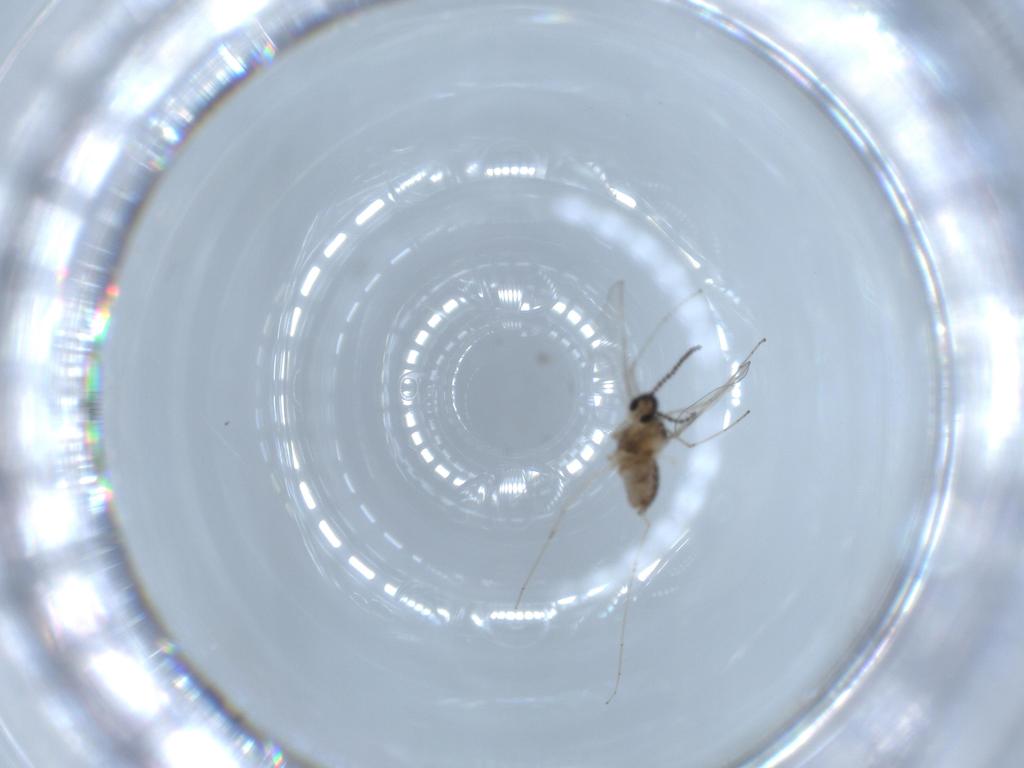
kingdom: Animalia
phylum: Arthropoda
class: Insecta
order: Diptera
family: Cecidomyiidae
